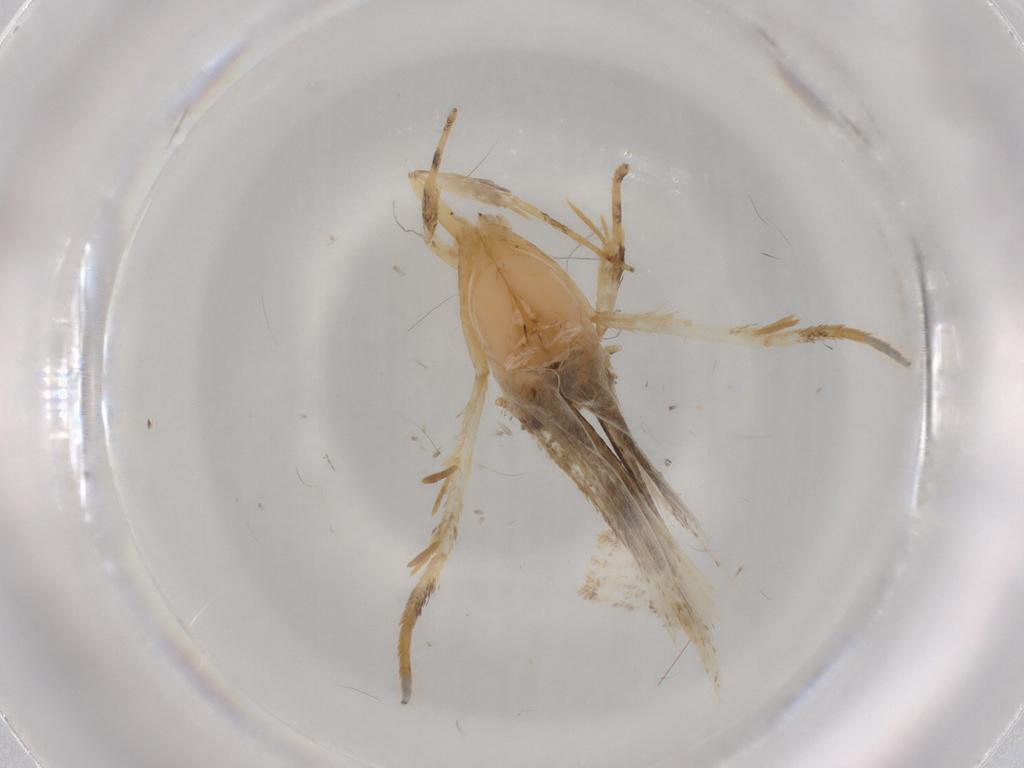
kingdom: Animalia
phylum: Arthropoda
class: Insecta
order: Lepidoptera
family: Lecithoceridae
